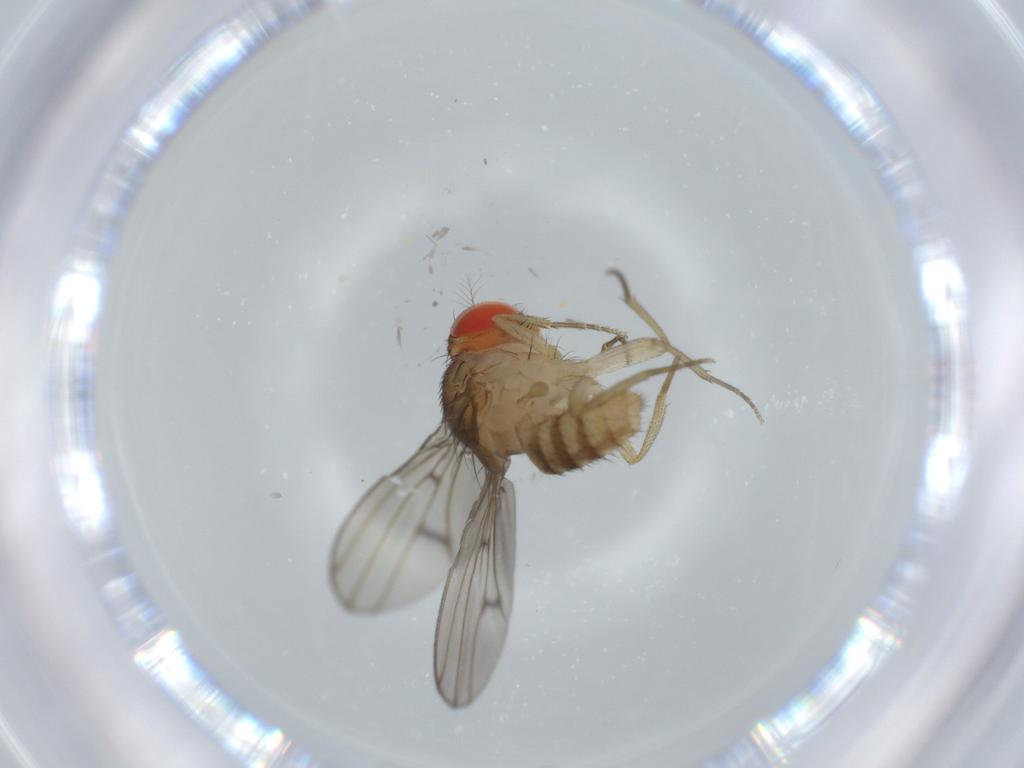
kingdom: Animalia
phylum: Arthropoda
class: Insecta
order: Diptera
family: Drosophilidae
